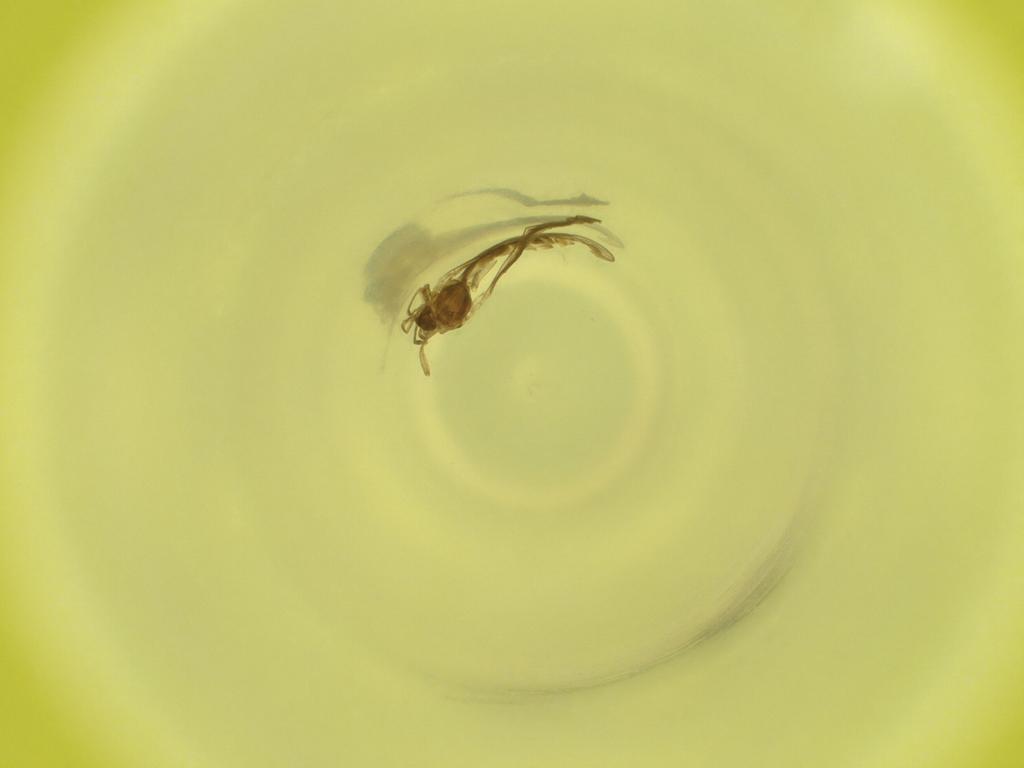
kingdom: Animalia
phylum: Arthropoda
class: Insecta
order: Diptera
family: Cecidomyiidae
